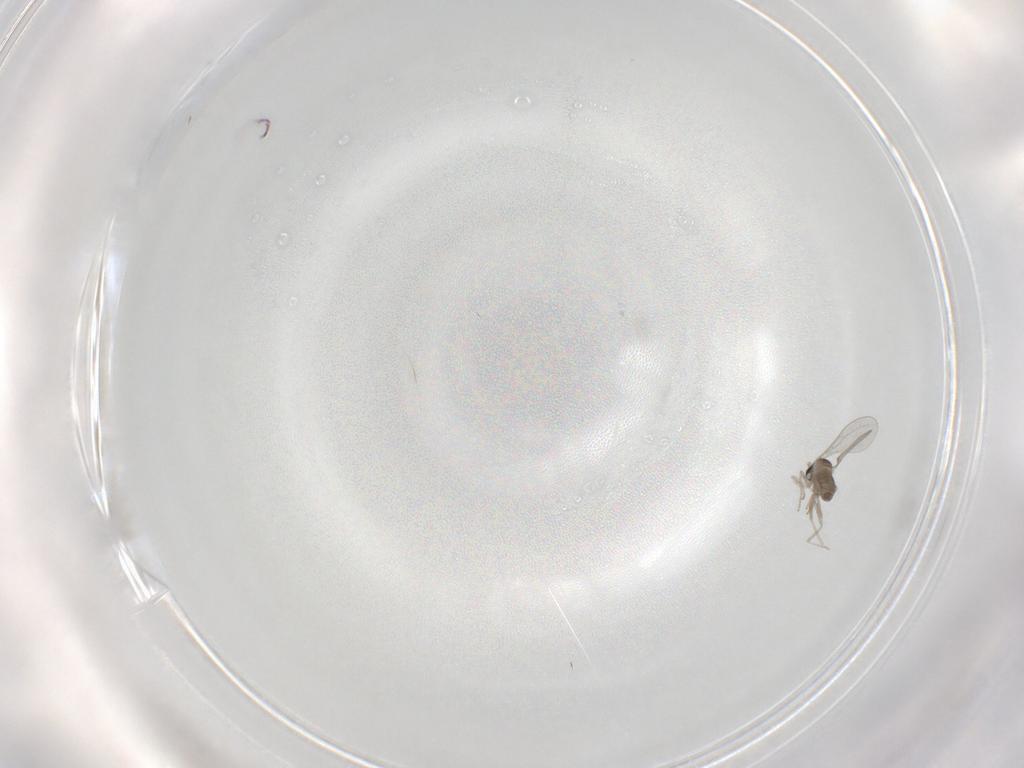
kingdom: Animalia
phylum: Arthropoda
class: Insecta
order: Diptera
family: Cecidomyiidae
